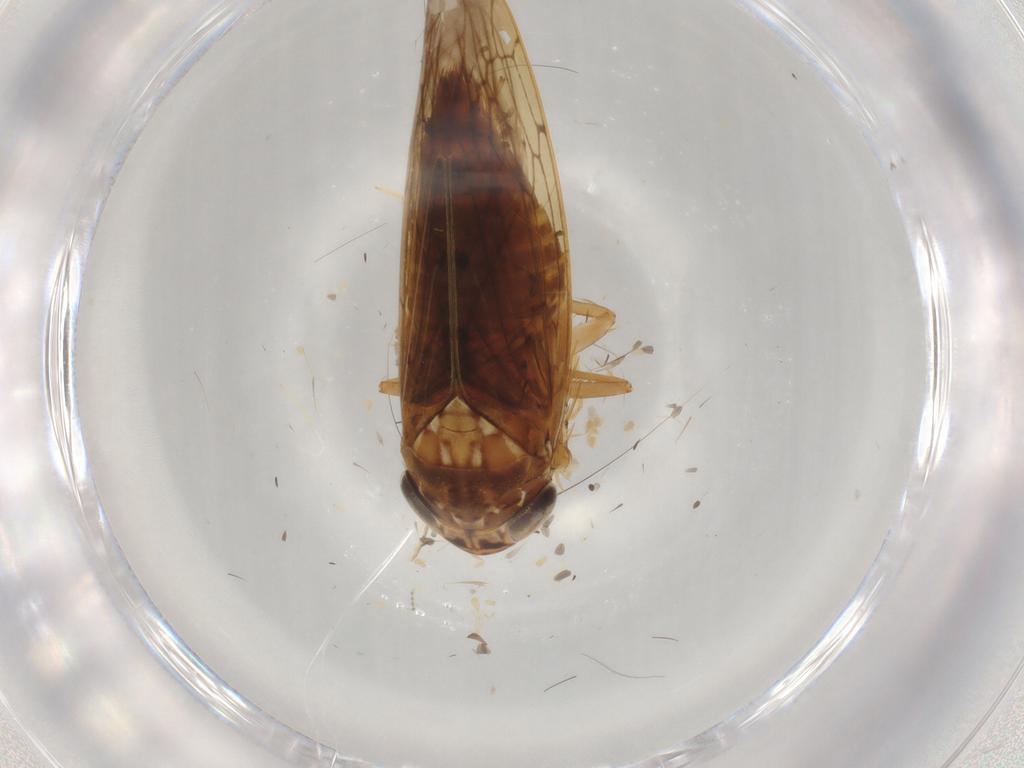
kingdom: Animalia
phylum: Arthropoda
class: Insecta
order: Hemiptera
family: Cicadellidae
